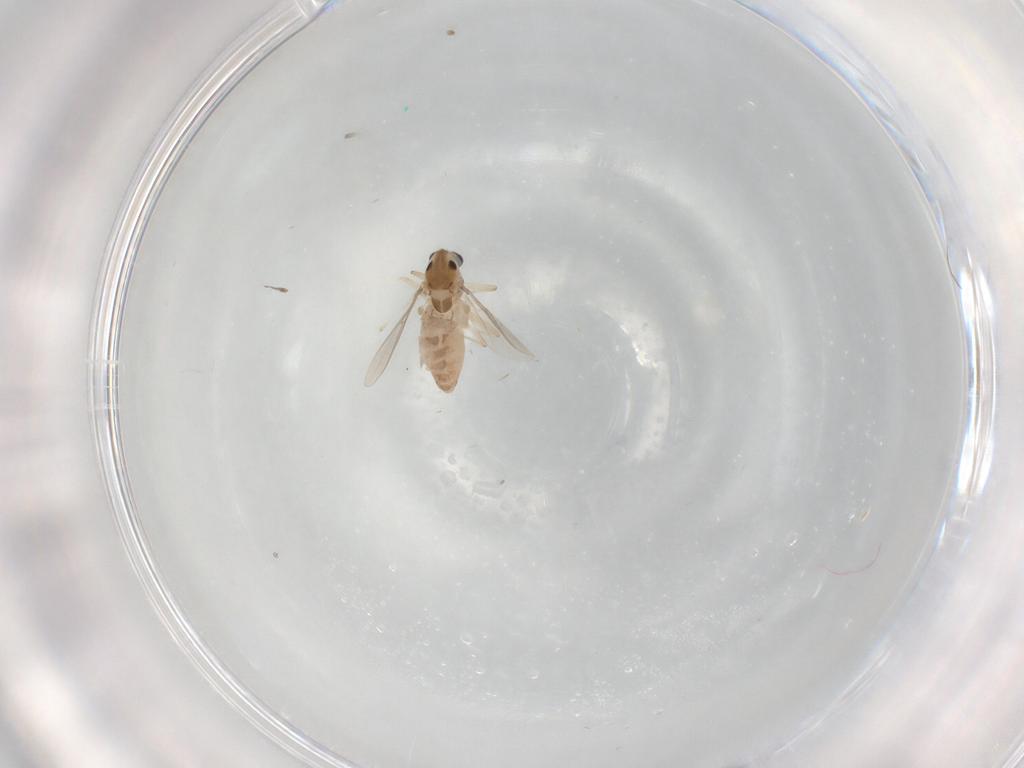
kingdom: Animalia
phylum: Arthropoda
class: Insecta
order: Diptera
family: Chironomidae
